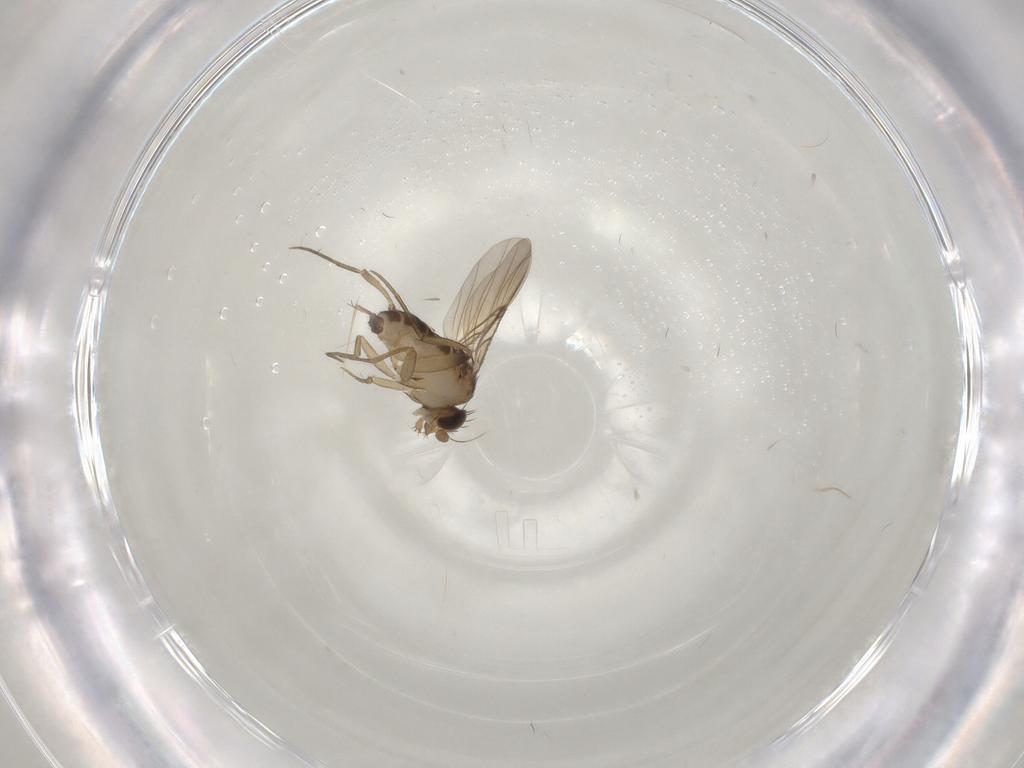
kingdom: Animalia
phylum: Arthropoda
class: Insecta
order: Diptera
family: Phoridae
